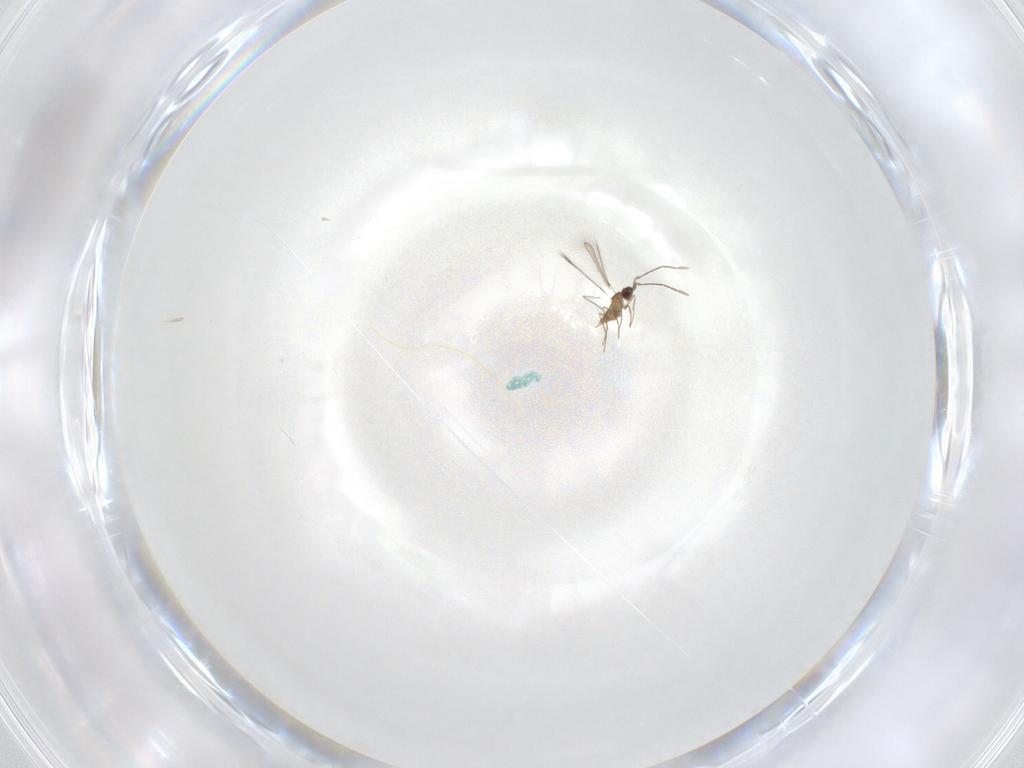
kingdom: Animalia
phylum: Arthropoda
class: Insecta
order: Hymenoptera
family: Mymaridae
